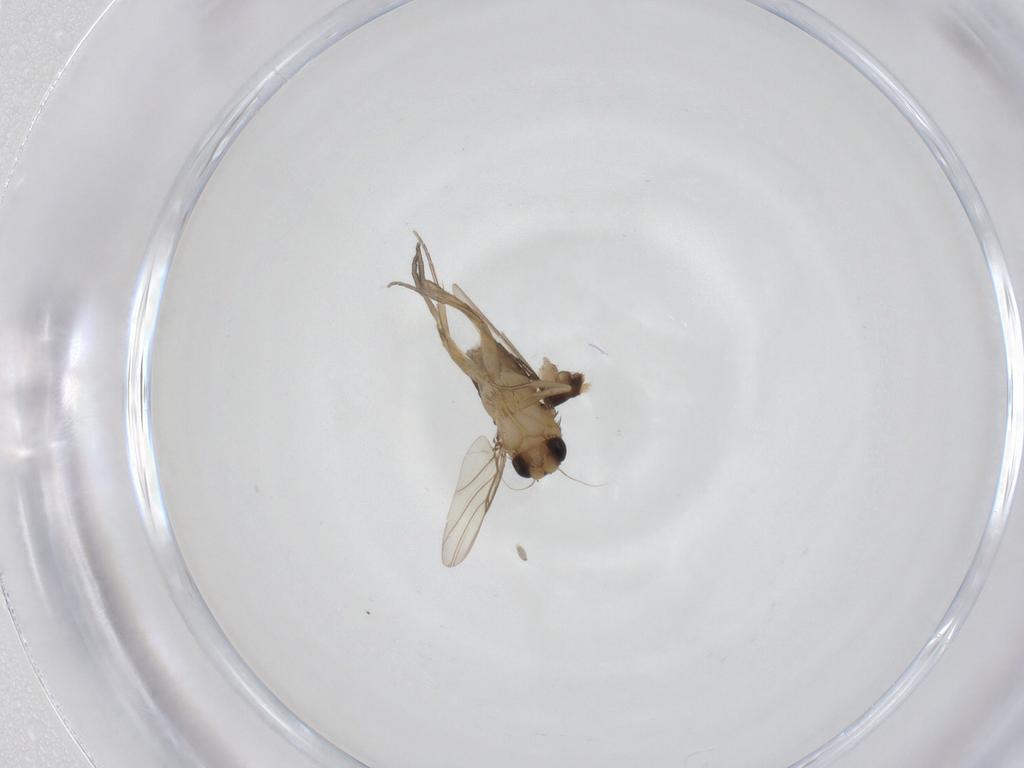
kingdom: Animalia
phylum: Arthropoda
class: Insecta
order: Diptera
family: Phoridae
